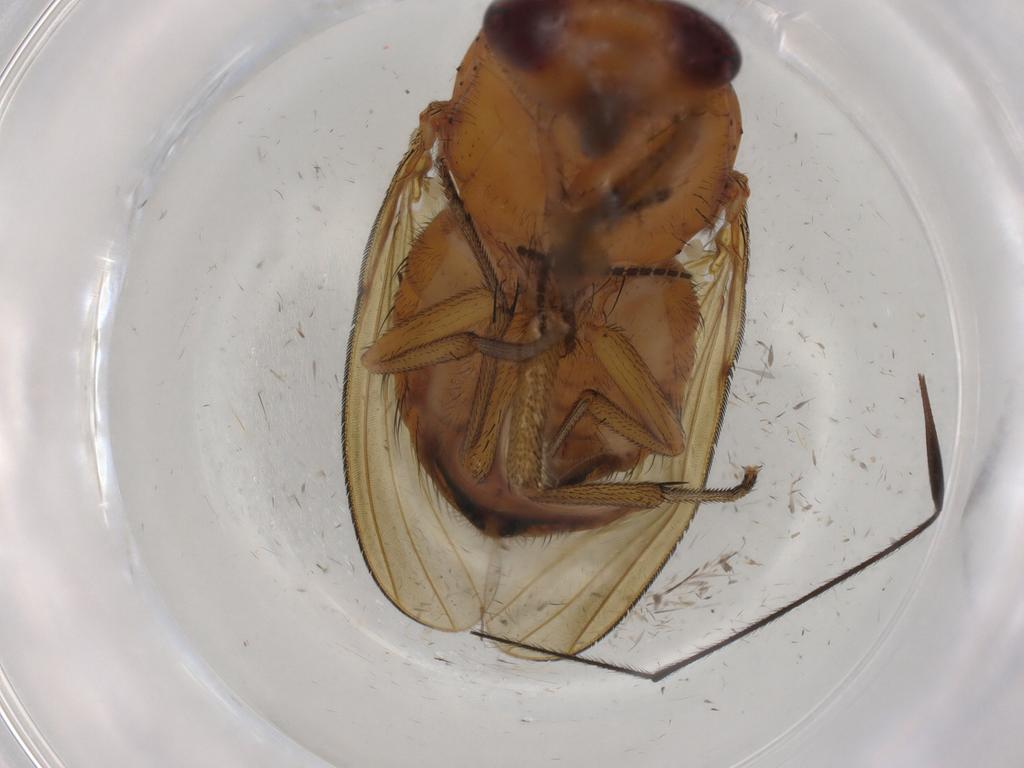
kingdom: Animalia
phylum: Arthropoda
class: Insecta
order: Diptera
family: Limoniidae
